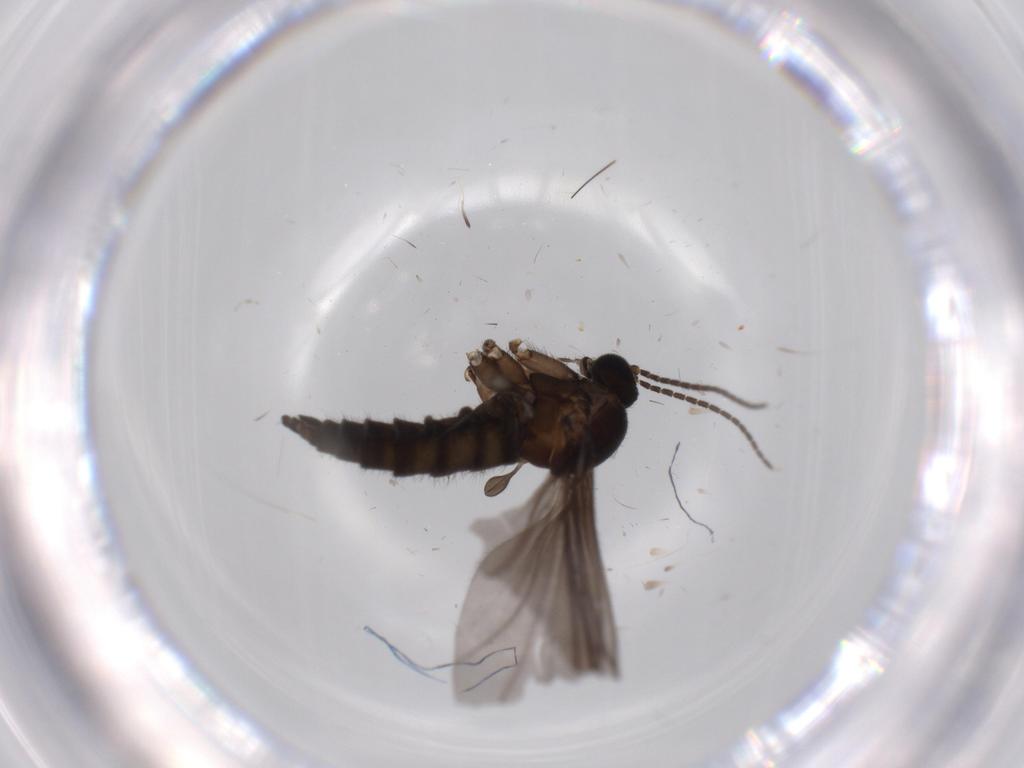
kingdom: Animalia
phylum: Arthropoda
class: Insecta
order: Diptera
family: Sciaridae
